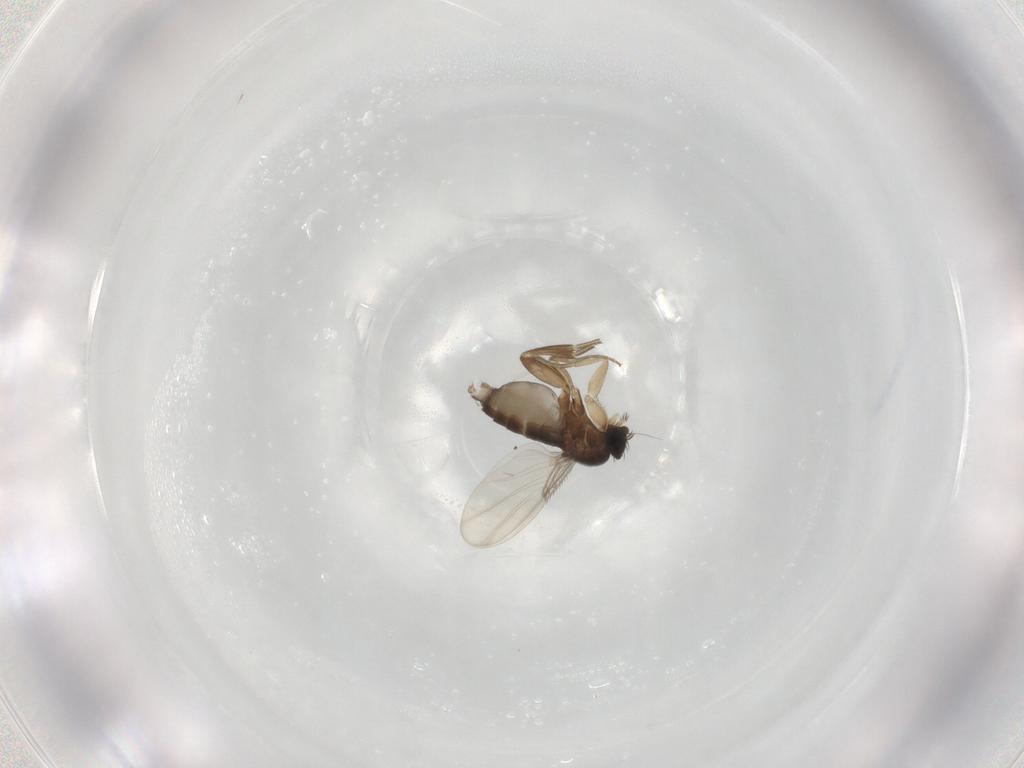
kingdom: Animalia
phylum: Arthropoda
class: Insecta
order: Diptera
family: Phoridae
